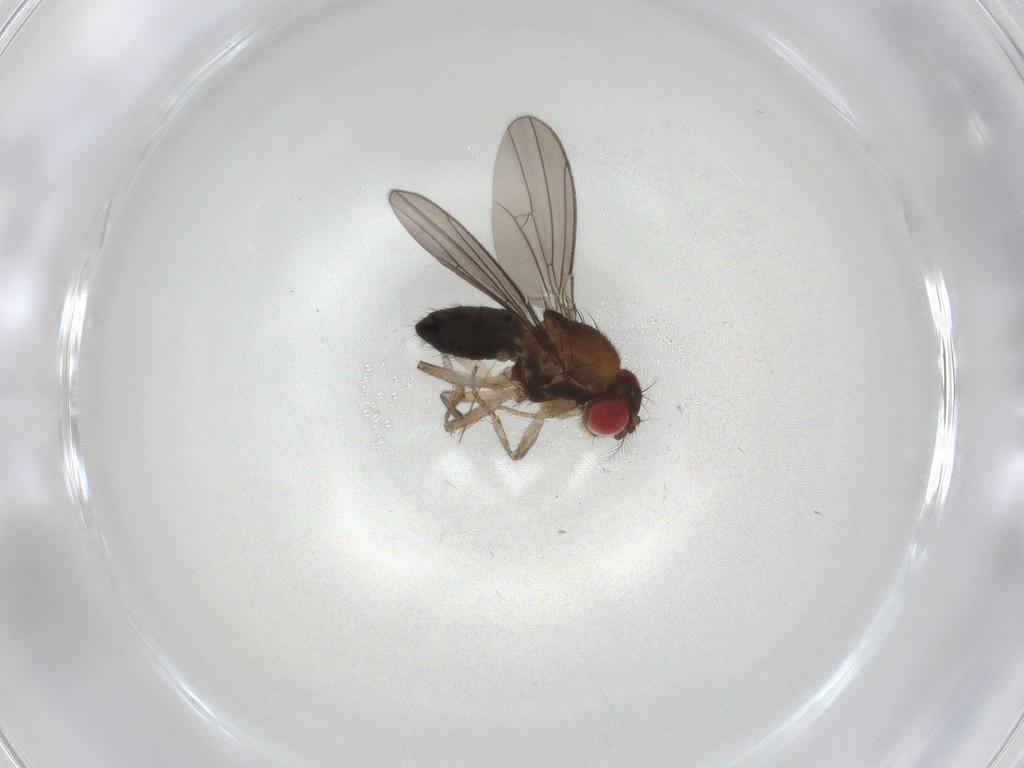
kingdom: Animalia
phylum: Arthropoda
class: Insecta
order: Diptera
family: Drosophilidae
